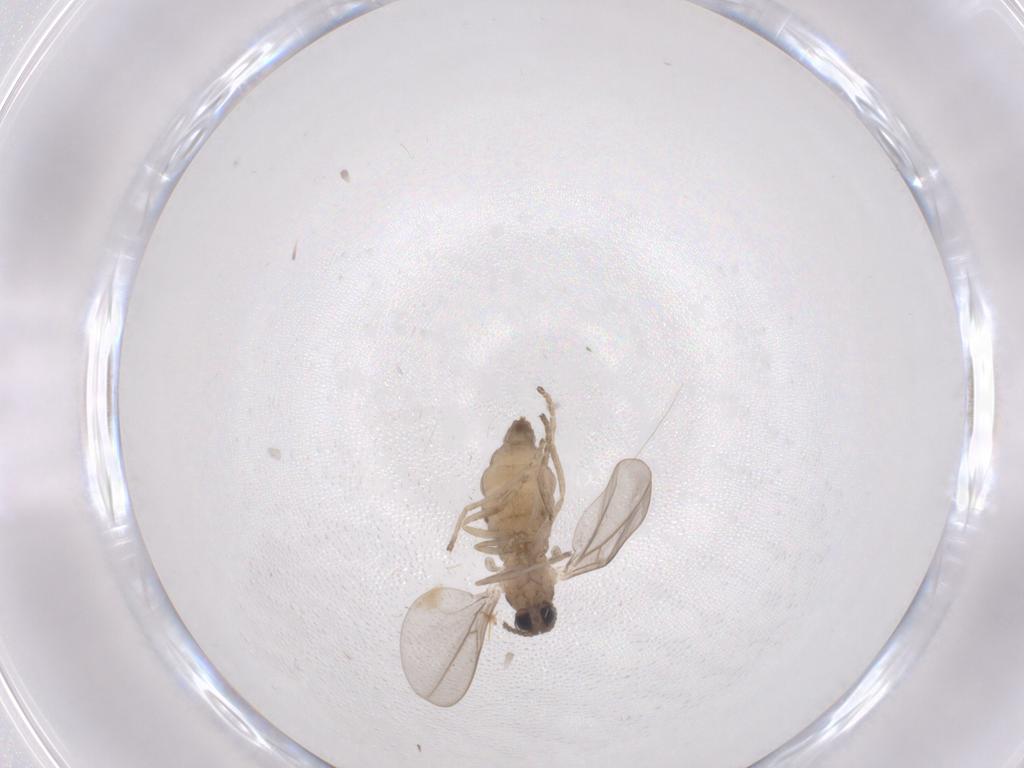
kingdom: Animalia
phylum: Arthropoda
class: Insecta
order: Diptera
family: Cecidomyiidae
